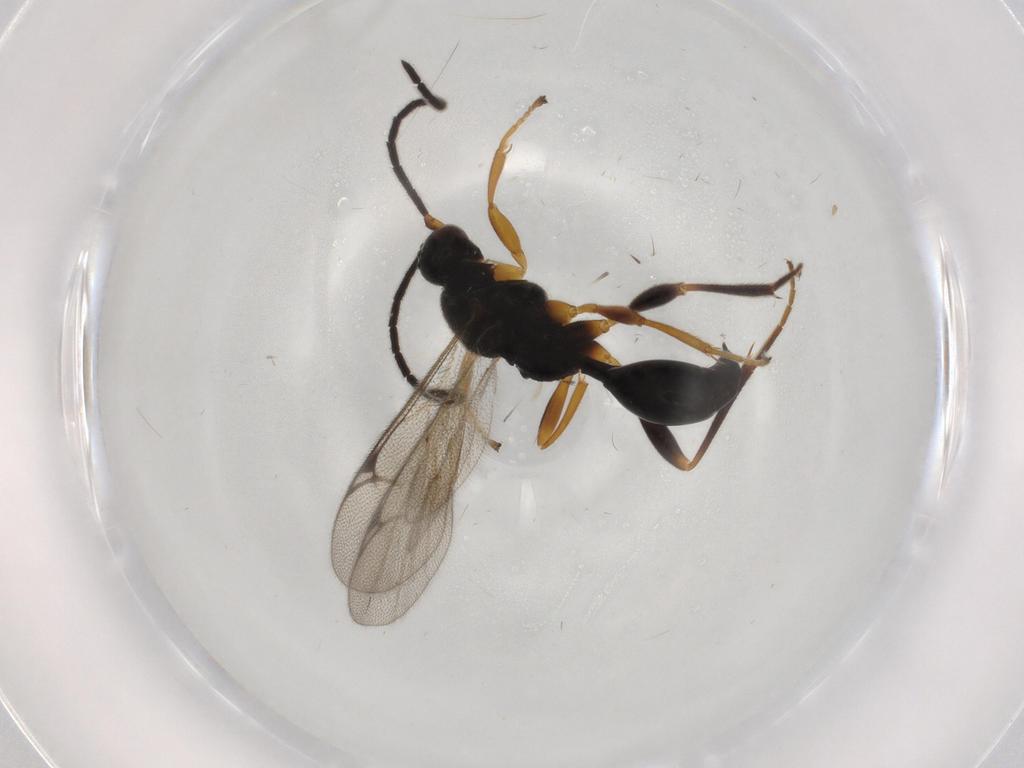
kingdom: Animalia
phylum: Arthropoda
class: Insecta
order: Hymenoptera
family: Proctotrupidae
